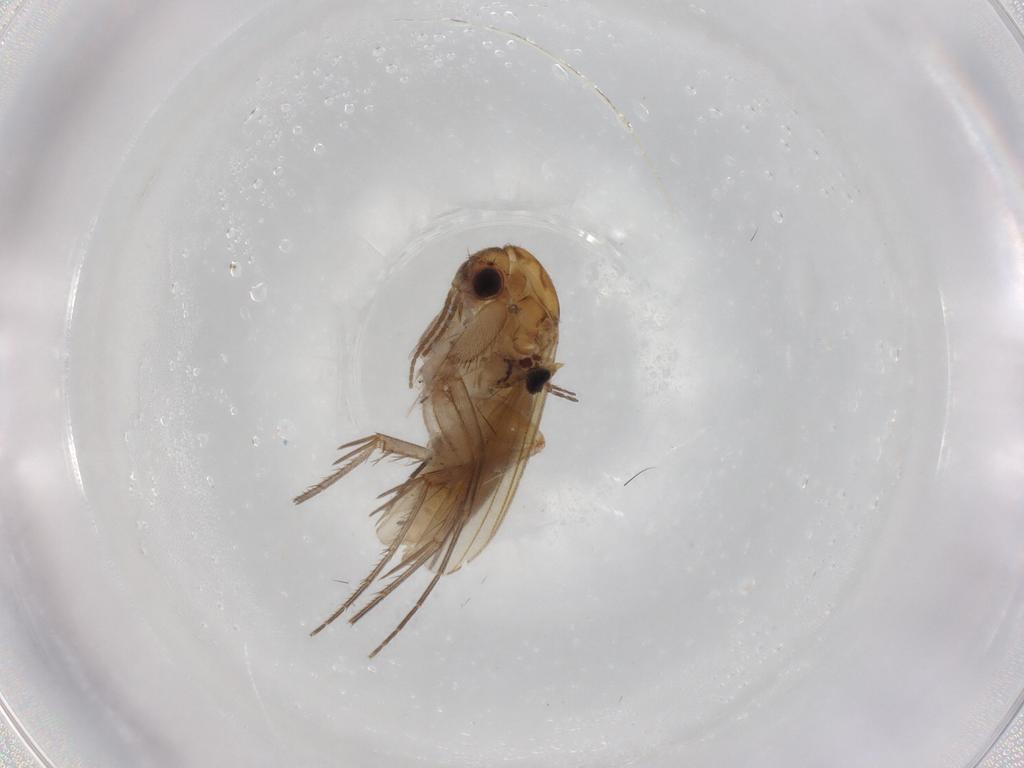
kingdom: Animalia
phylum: Arthropoda
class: Insecta
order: Diptera
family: Mycetophilidae
